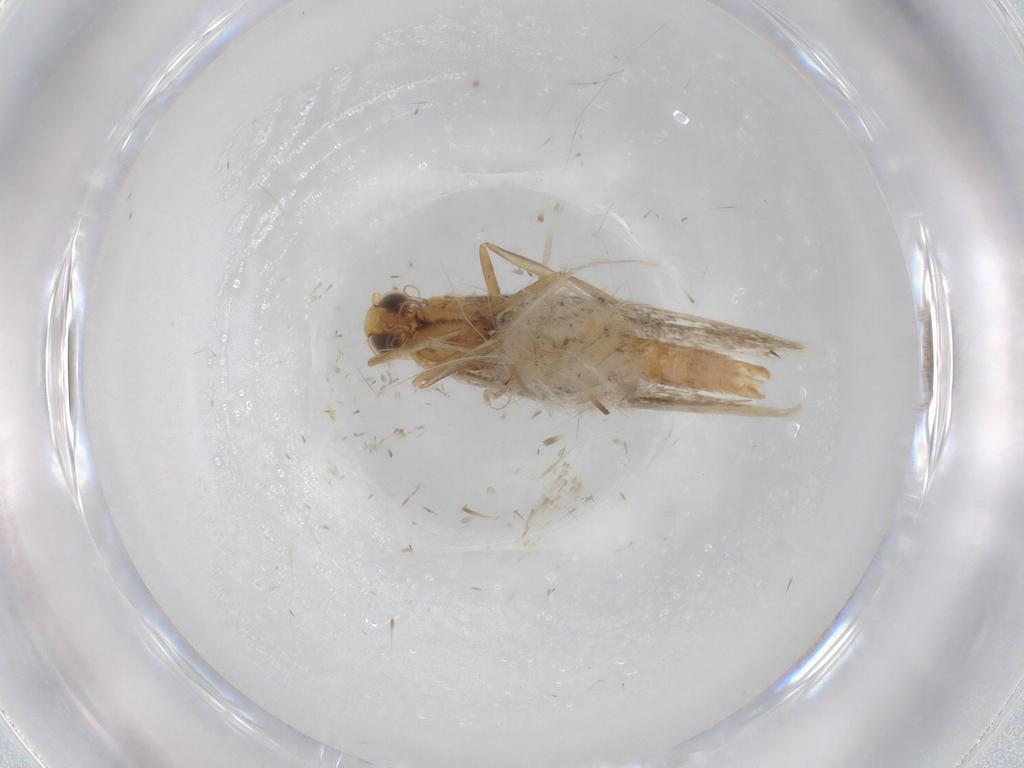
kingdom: Animalia
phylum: Arthropoda
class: Insecta
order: Lepidoptera
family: Gracillariidae
